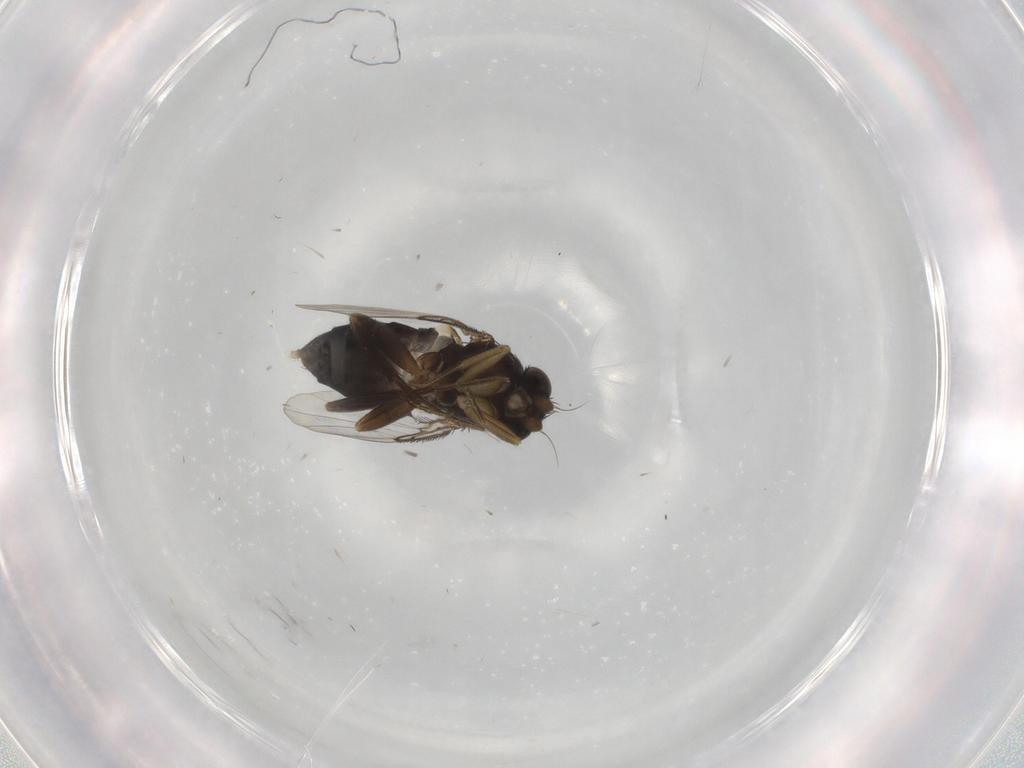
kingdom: Animalia
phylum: Arthropoda
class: Insecta
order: Diptera
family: Phoridae
